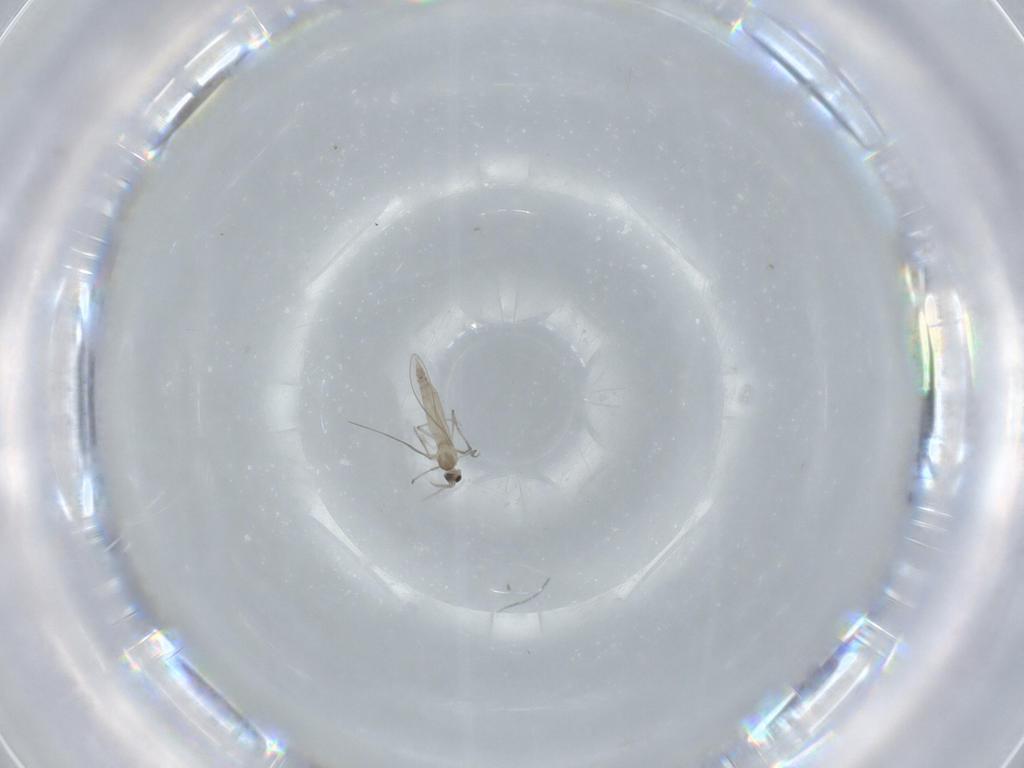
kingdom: Animalia
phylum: Arthropoda
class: Insecta
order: Diptera
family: Cecidomyiidae
